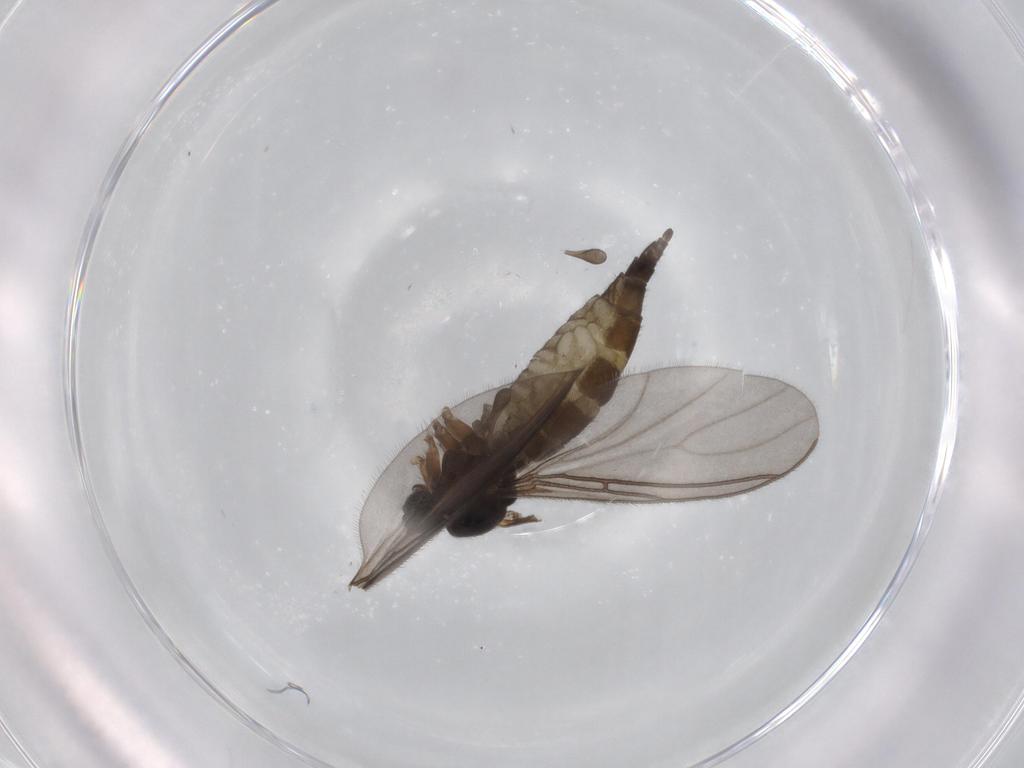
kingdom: Animalia
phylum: Arthropoda
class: Insecta
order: Diptera
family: Sciaridae
